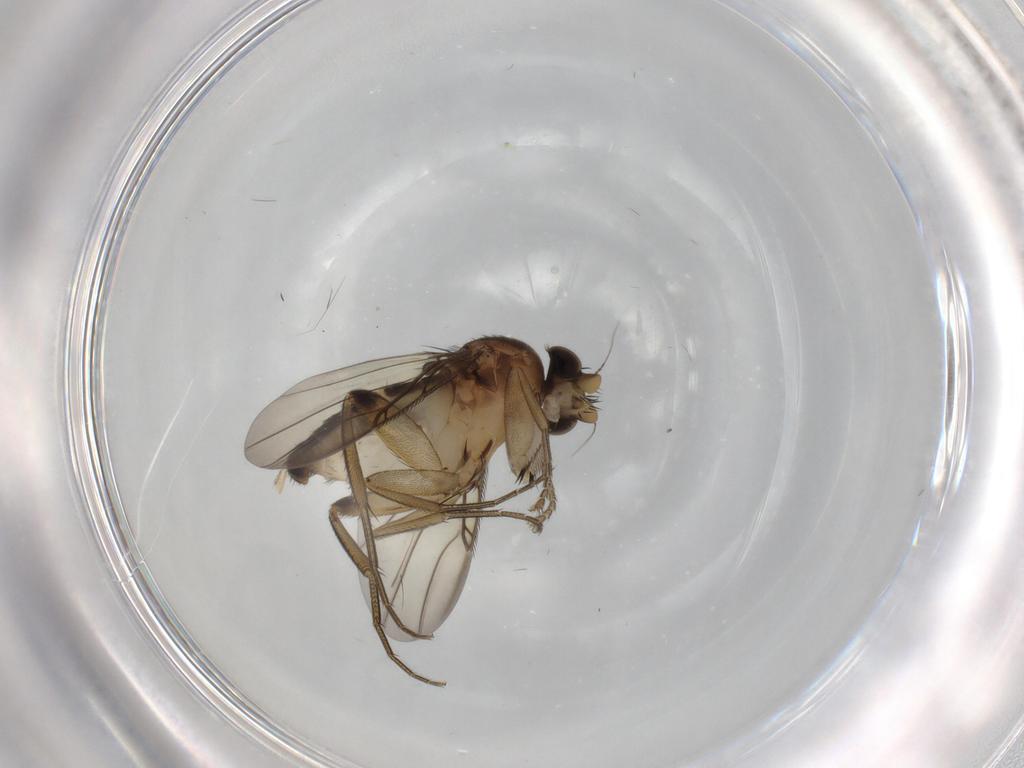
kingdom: Animalia
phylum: Arthropoda
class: Insecta
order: Diptera
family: Phoridae
